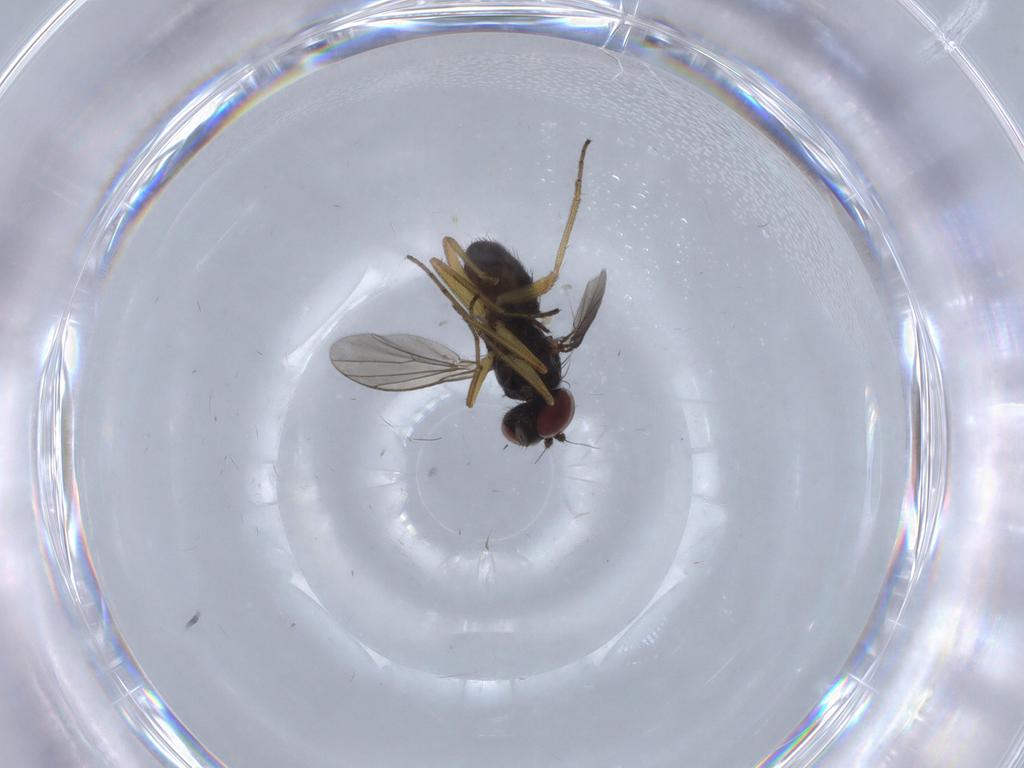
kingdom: Animalia
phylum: Arthropoda
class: Insecta
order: Diptera
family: Dolichopodidae
